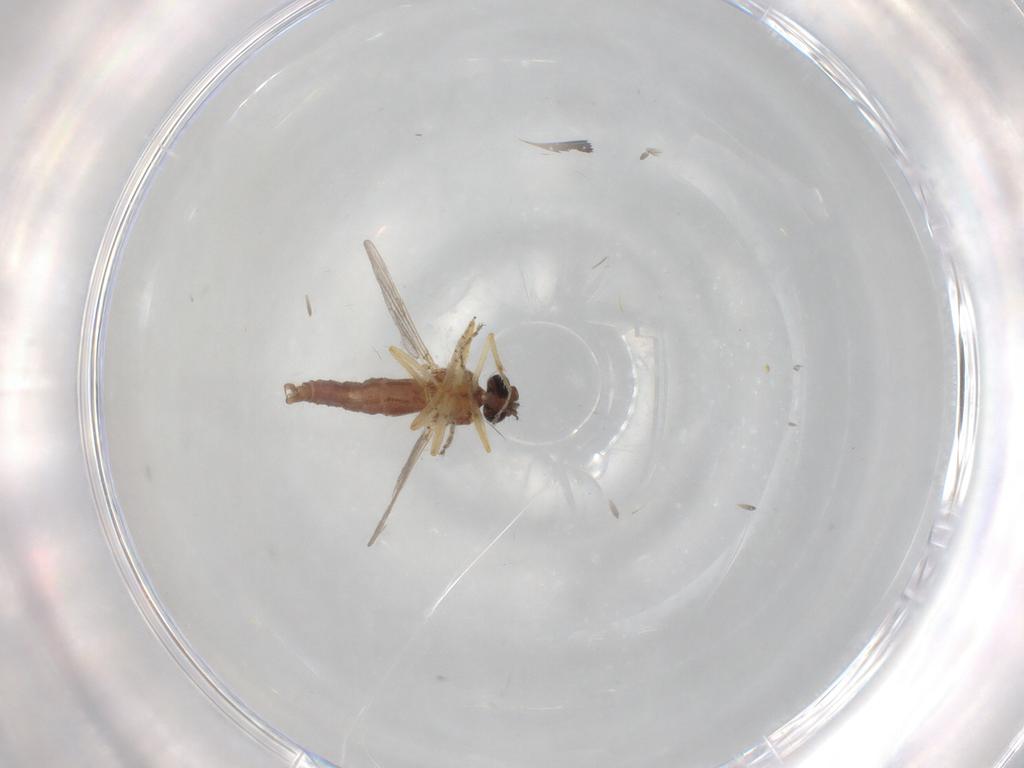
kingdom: Animalia
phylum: Arthropoda
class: Insecta
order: Diptera
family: Ceratopogonidae
